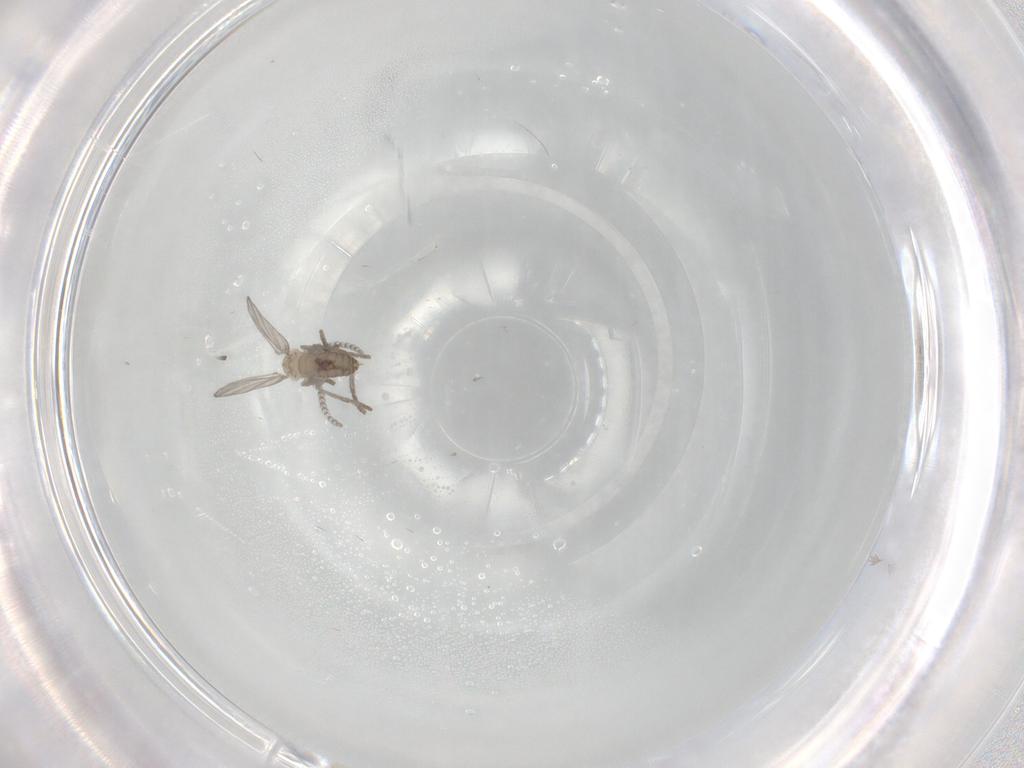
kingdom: Animalia
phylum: Arthropoda
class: Insecta
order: Diptera
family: Psychodidae
